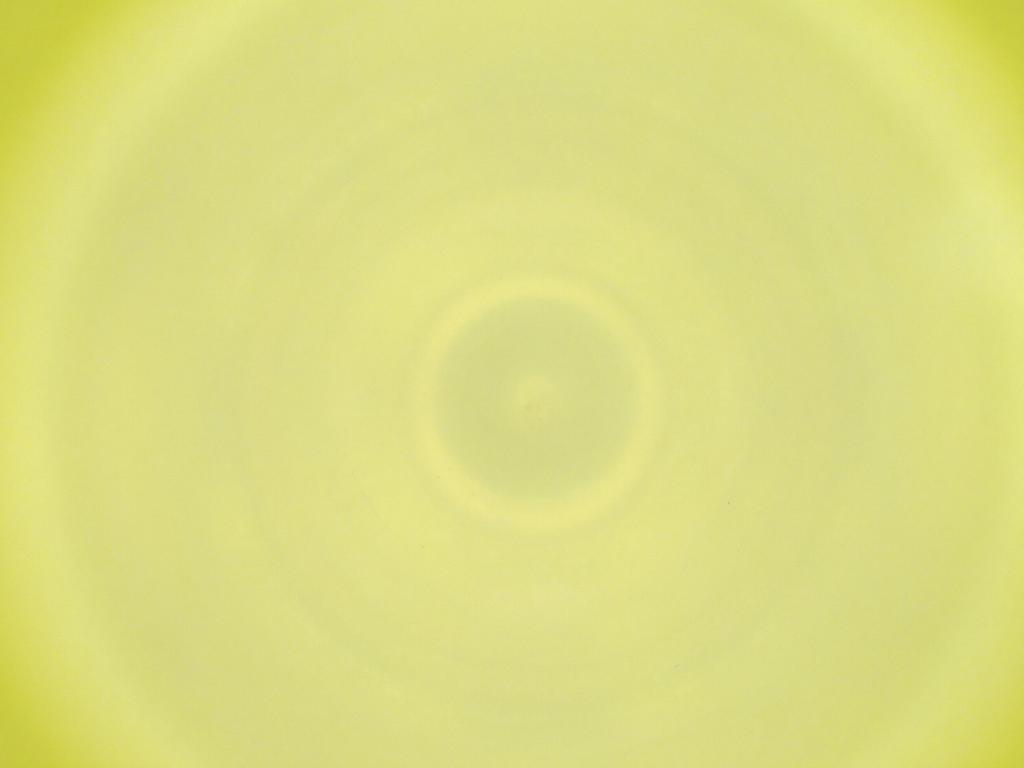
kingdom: Animalia
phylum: Arthropoda
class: Insecta
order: Diptera
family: Cecidomyiidae
